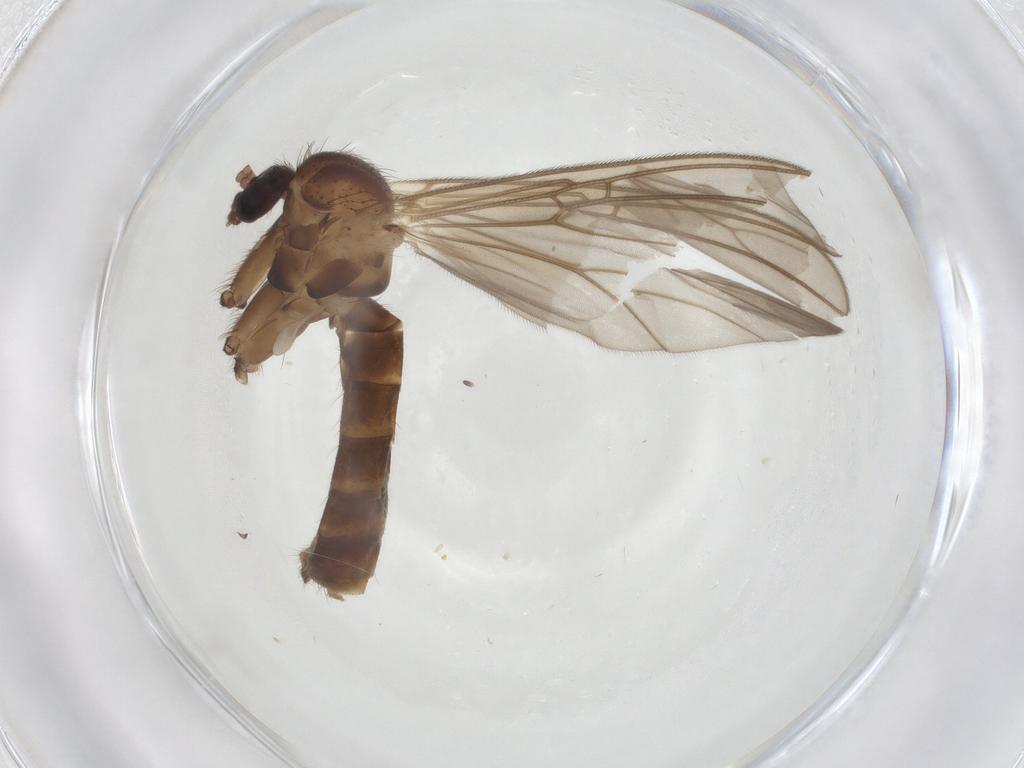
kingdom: Animalia
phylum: Arthropoda
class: Insecta
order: Diptera
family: Mycetophilidae
